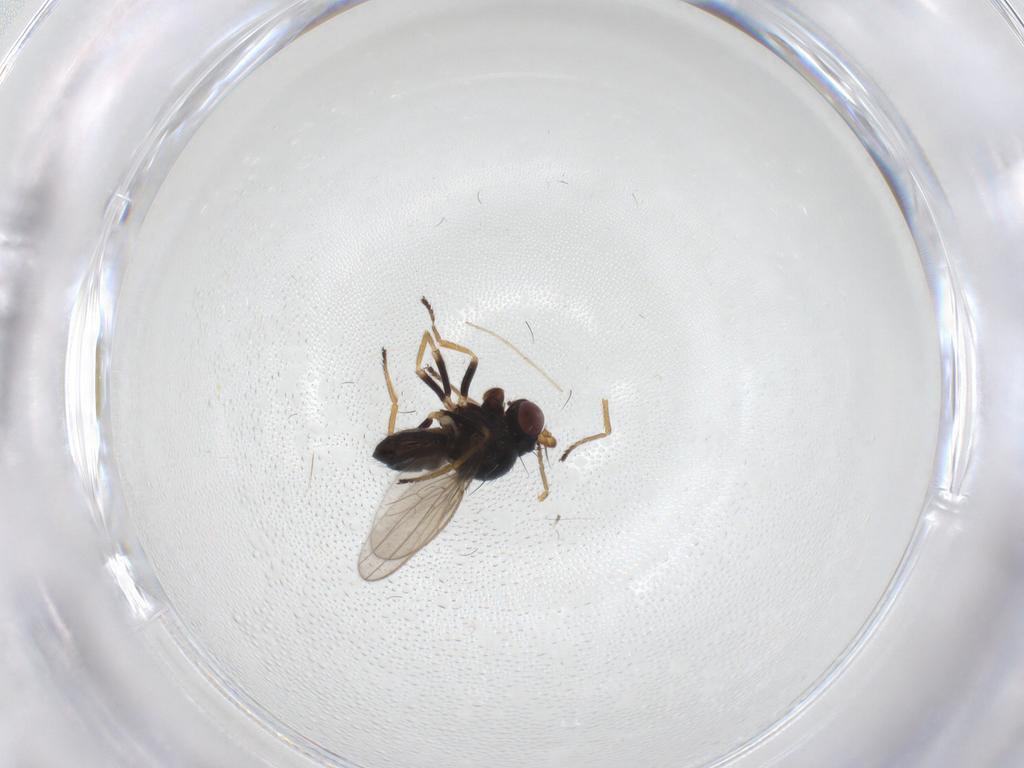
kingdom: Animalia
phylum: Arthropoda
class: Insecta
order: Diptera
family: Ephydridae
